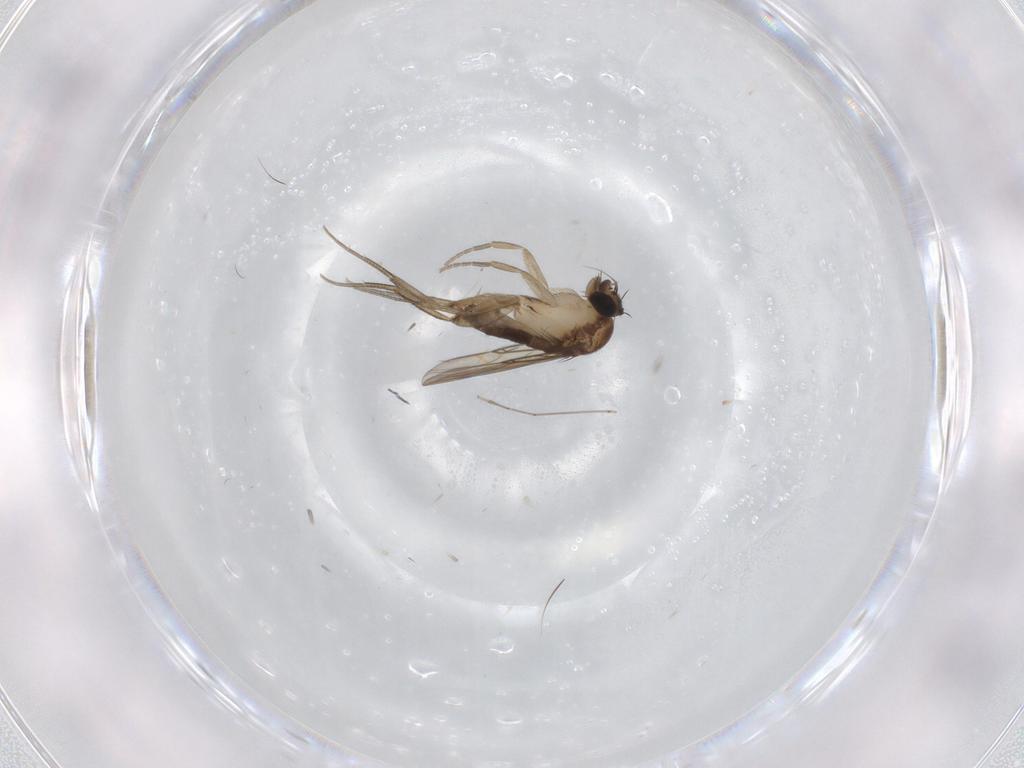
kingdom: Animalia
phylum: Arthropoda
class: Insecta
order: Diptera
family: Phoridae
